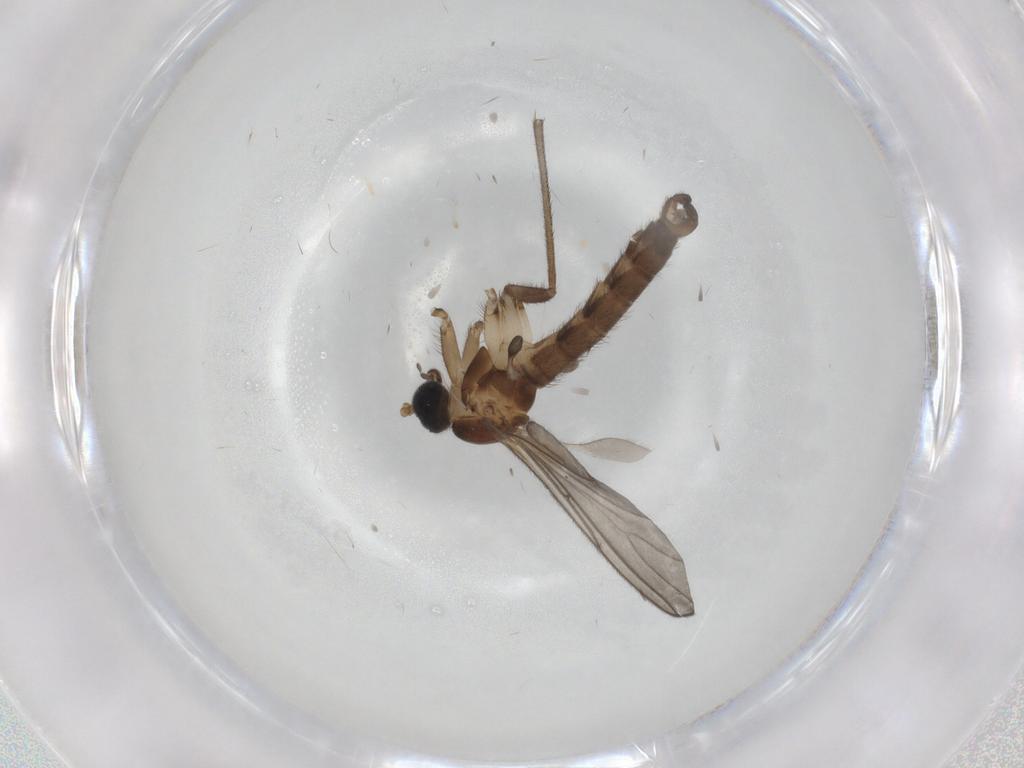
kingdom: Animalia
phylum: Arthropoda
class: Insecta
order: Diptera
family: Sciaridae
